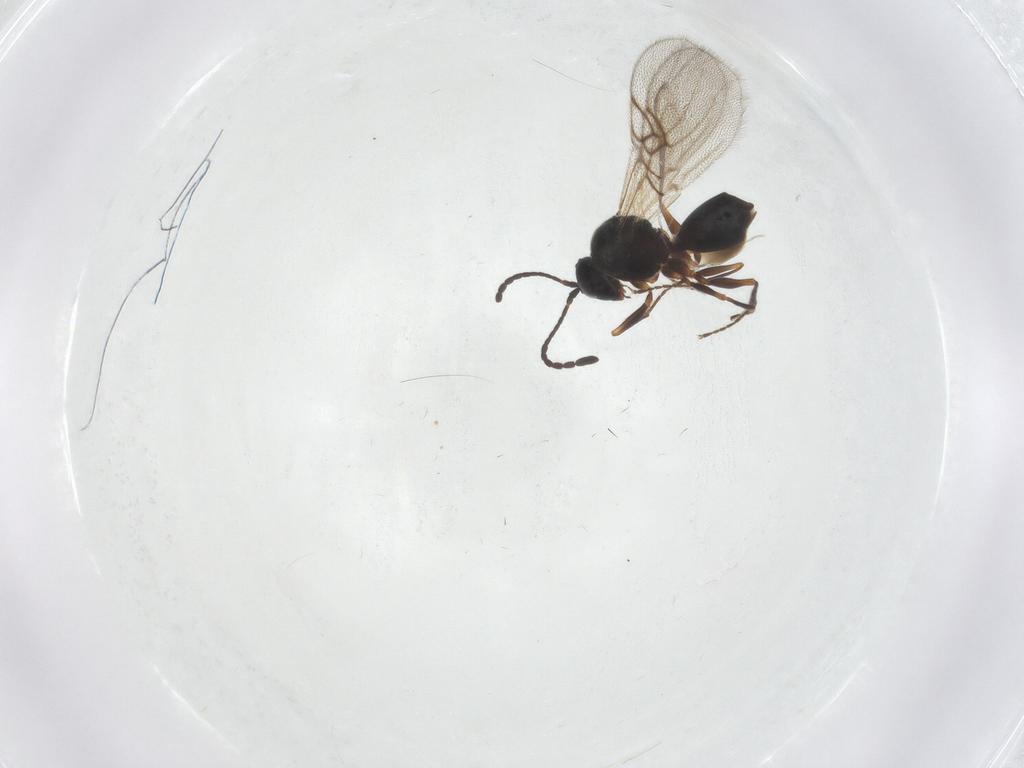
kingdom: Animalia
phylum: Arthropoda
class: Insecta
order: Hymenoptera
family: Figitidae
